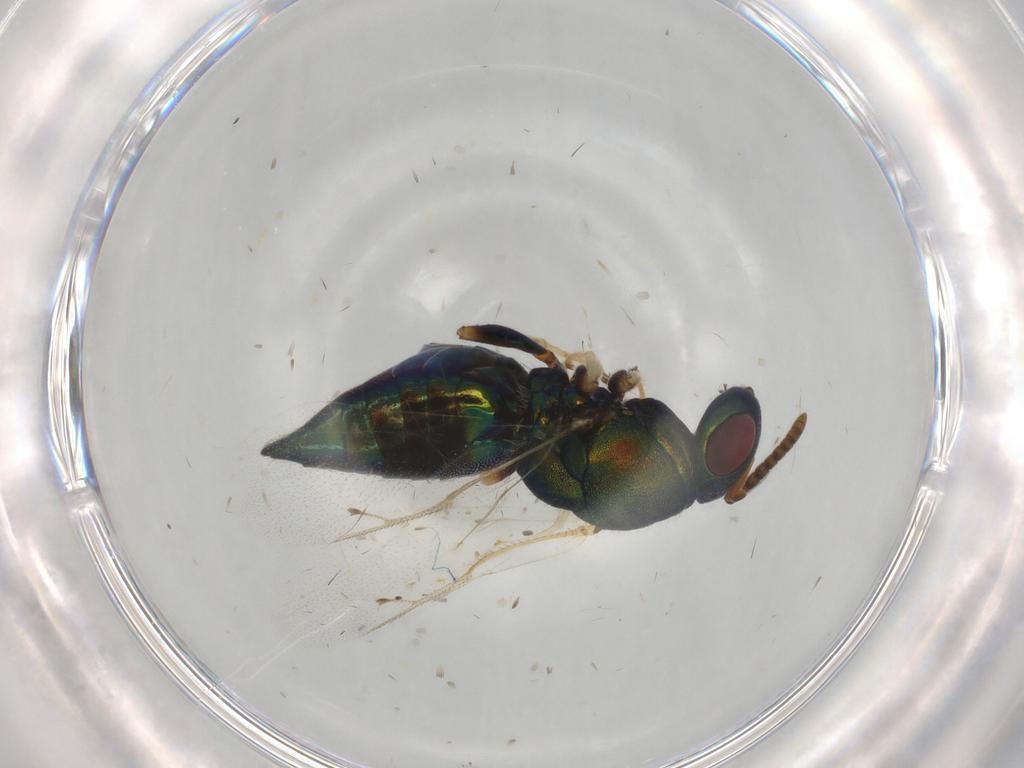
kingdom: Animalia
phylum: Arthropoda
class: Insecta
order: Hymenoptera
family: Pteromalidae
